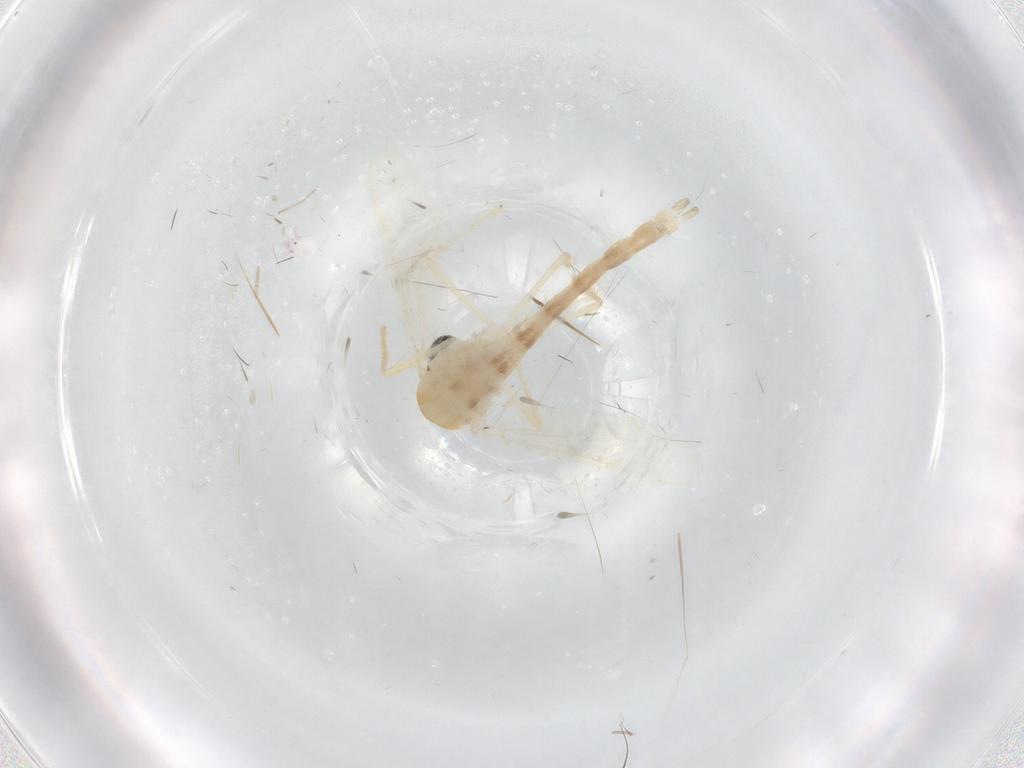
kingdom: Animalia
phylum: Arthropoda
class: Insecta
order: Diptera
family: Chironomidae
